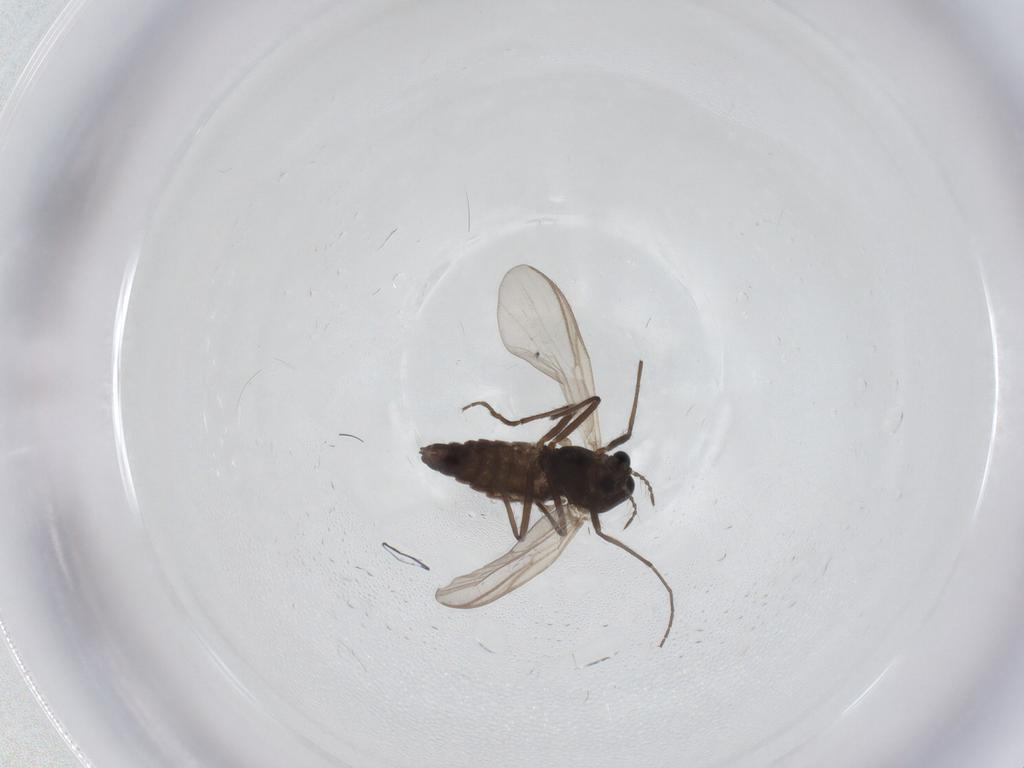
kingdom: Animalia
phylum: Arthropoda
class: Insecta
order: Diptera
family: Chironomidae
